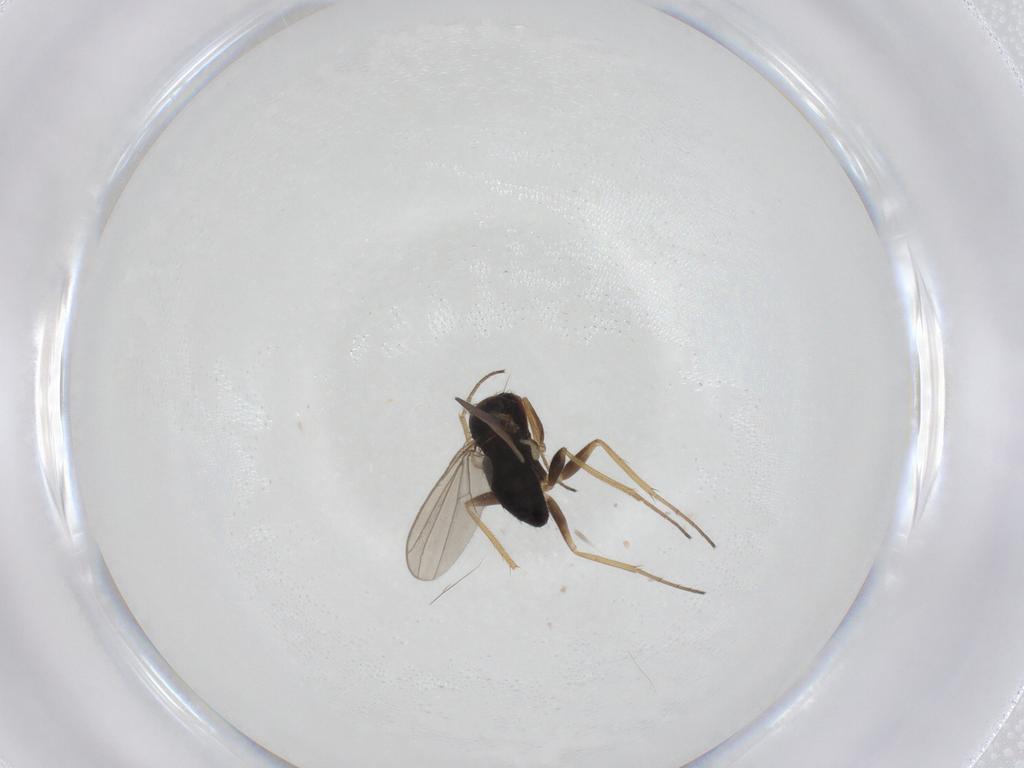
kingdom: Animalia
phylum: Arthropoda
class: Insecta
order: Diptera
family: Dolichopodidae
